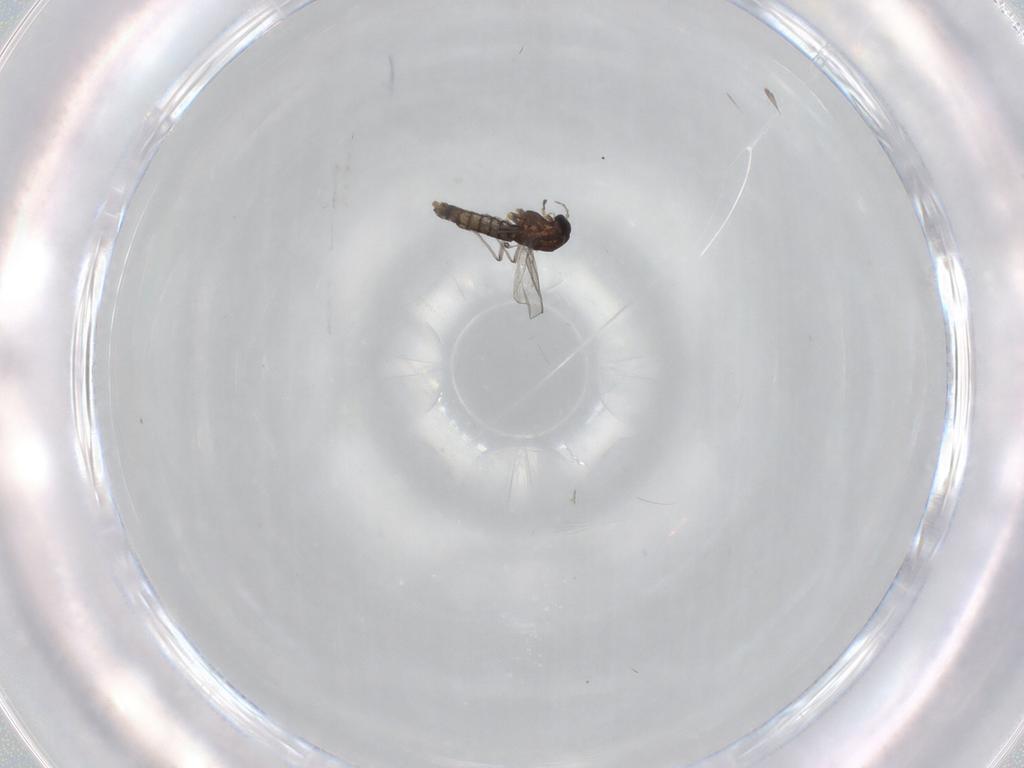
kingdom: Animalia
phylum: Arthropoda
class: Insecta
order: Diptera
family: Chironomidae
